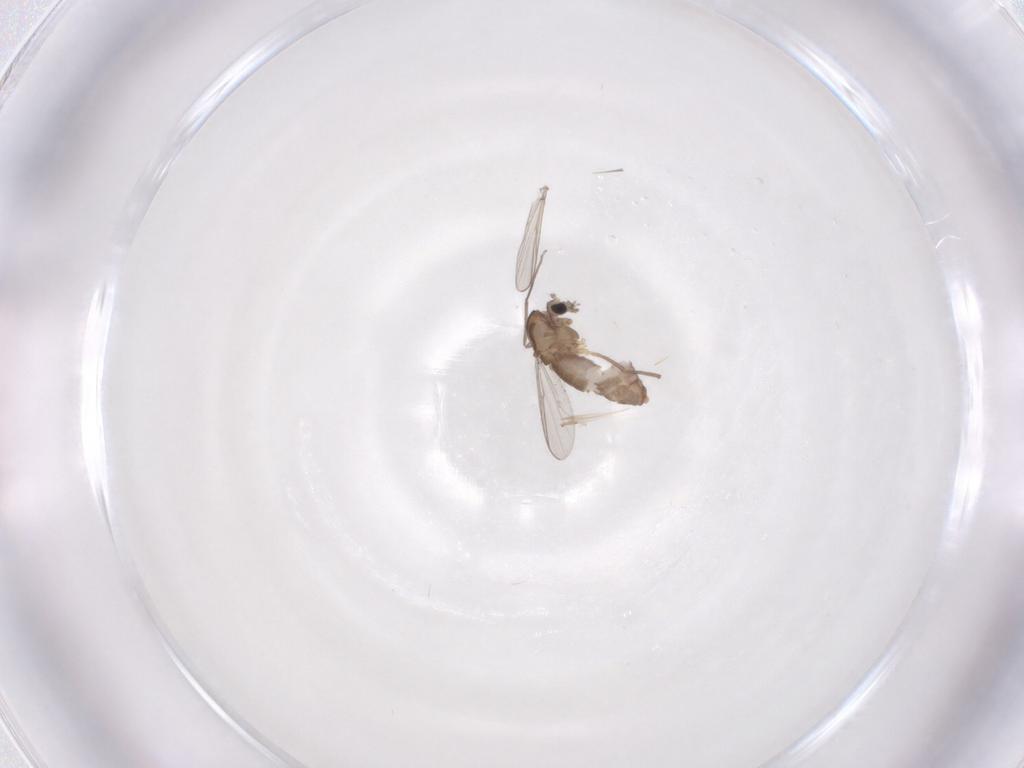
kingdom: Animalia
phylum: Arthropoda
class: Insecta
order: Diptera
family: Chironomidae
